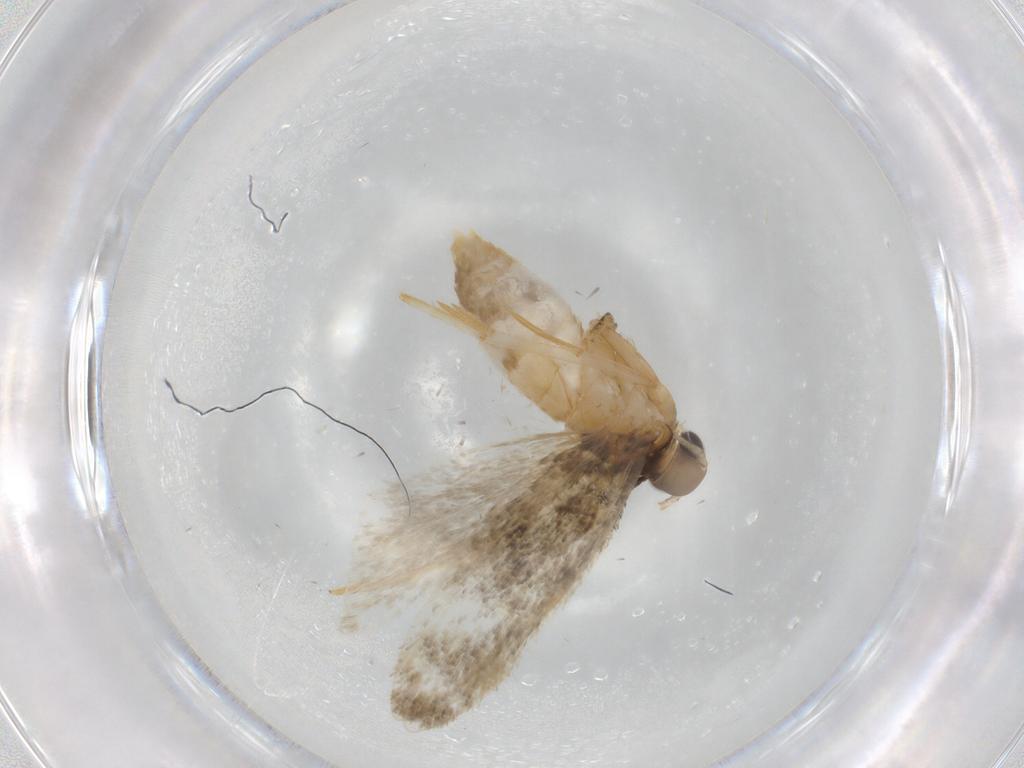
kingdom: Animalia
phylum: Arthropoda
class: Insecta
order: Lepidoptera
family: Autostichidae
